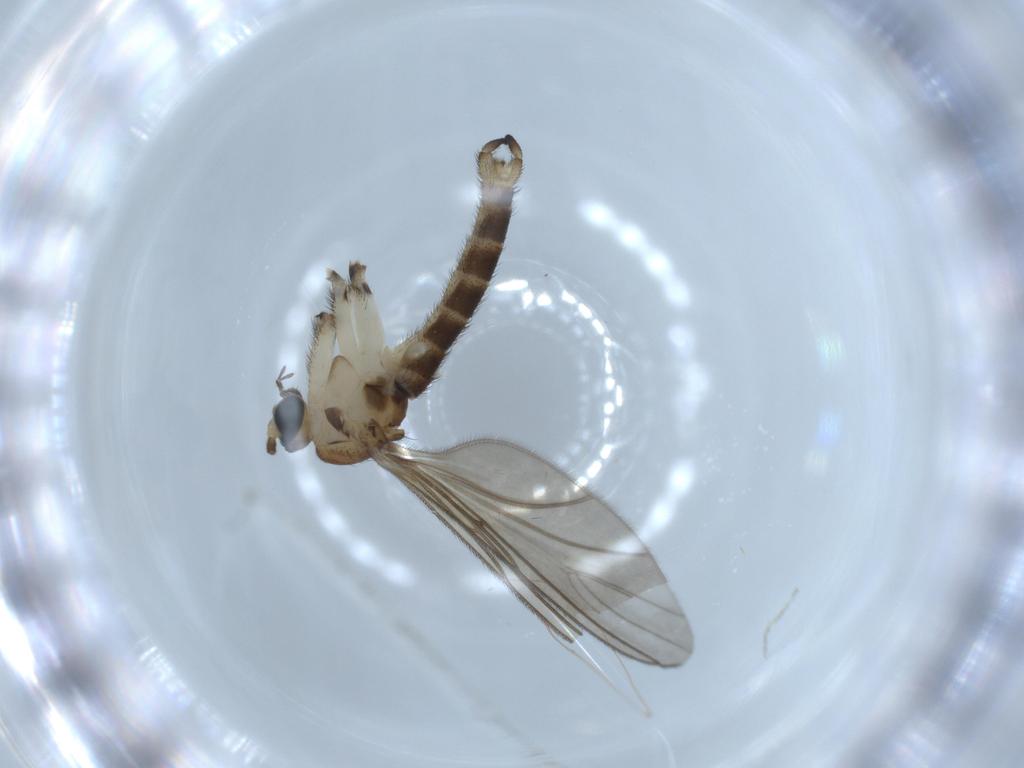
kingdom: Animalia
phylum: Arthropoda
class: Insecta
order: Diptera
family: Sciaridae
